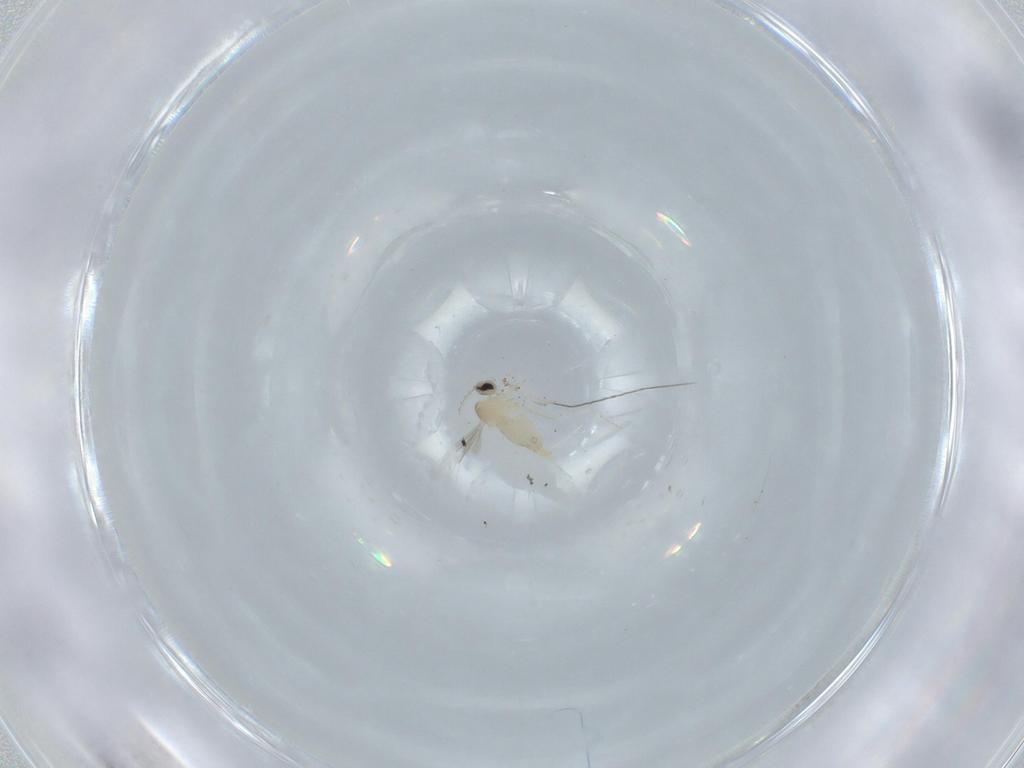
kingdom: Animalia
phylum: Arthropoda
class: Insecta
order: Diptera
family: Cecidomyiidae
